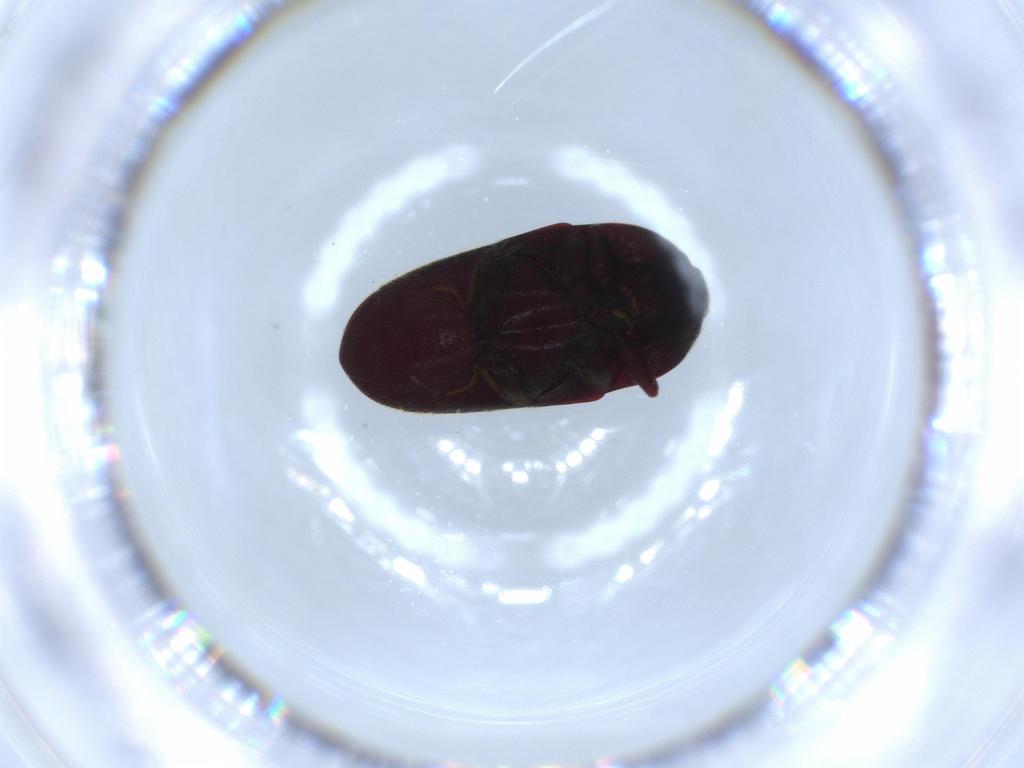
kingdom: Animalia
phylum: Arthropoda
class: Insecta
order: Coleoptera
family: Throscidae
